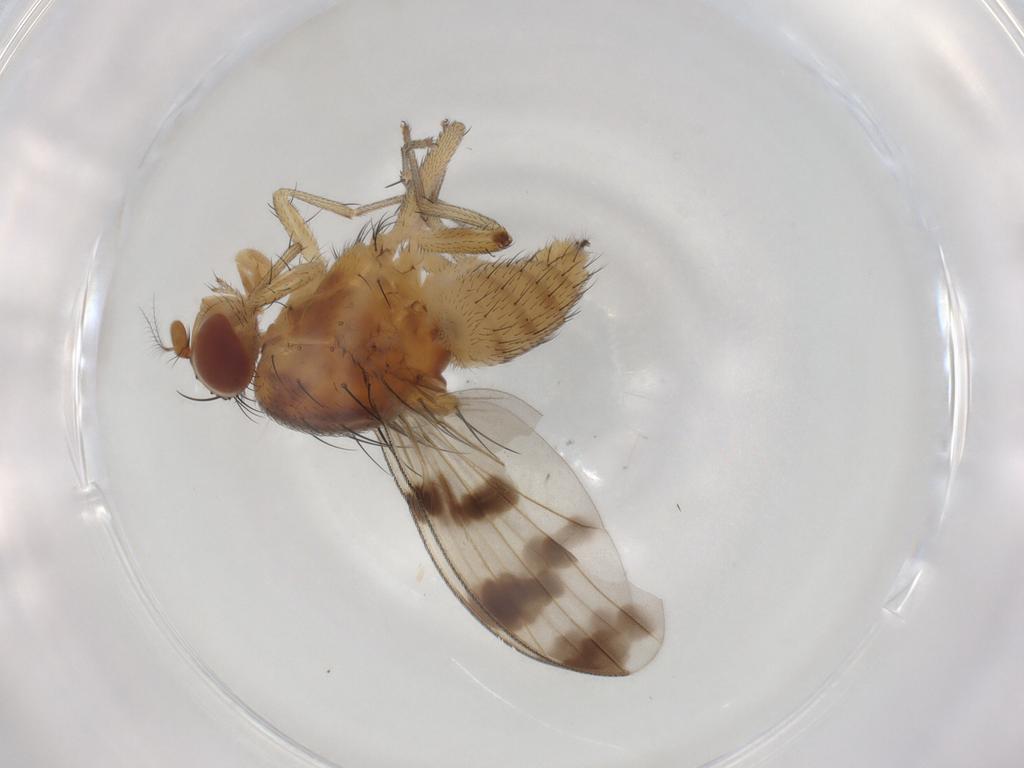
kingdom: Animalia
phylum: Arthropoda
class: Insecta
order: Diptera
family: Lauxaniidae
